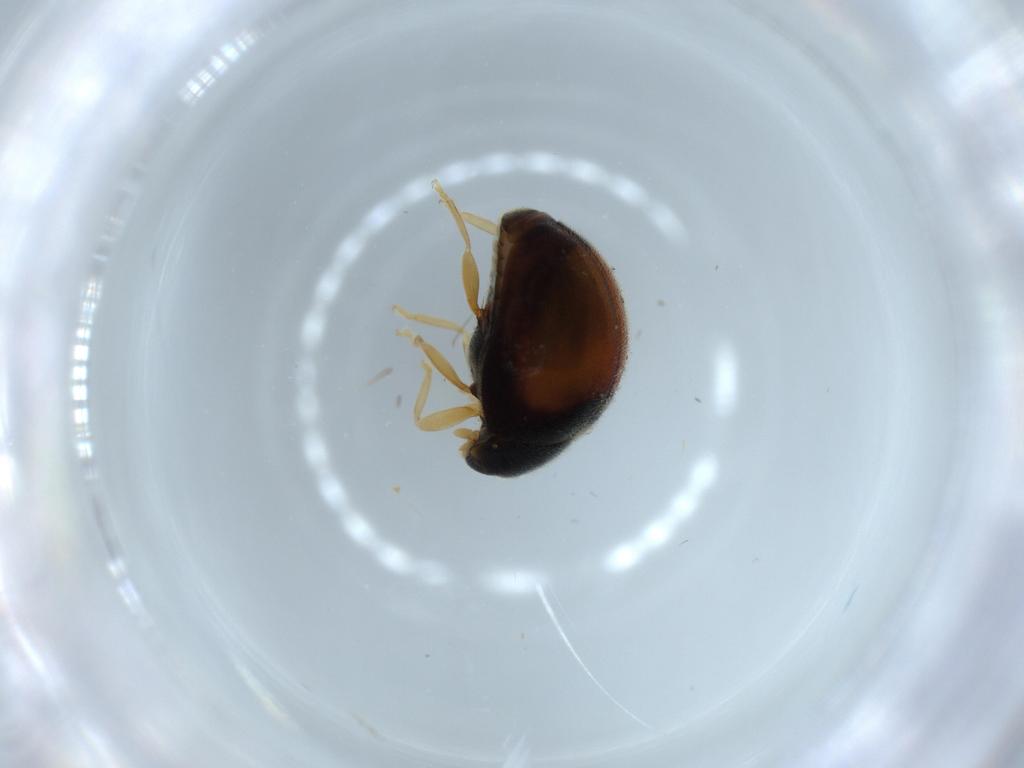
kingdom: Animalia
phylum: Arthropoda
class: Insecta
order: Coleoptera
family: Coccinellidae
